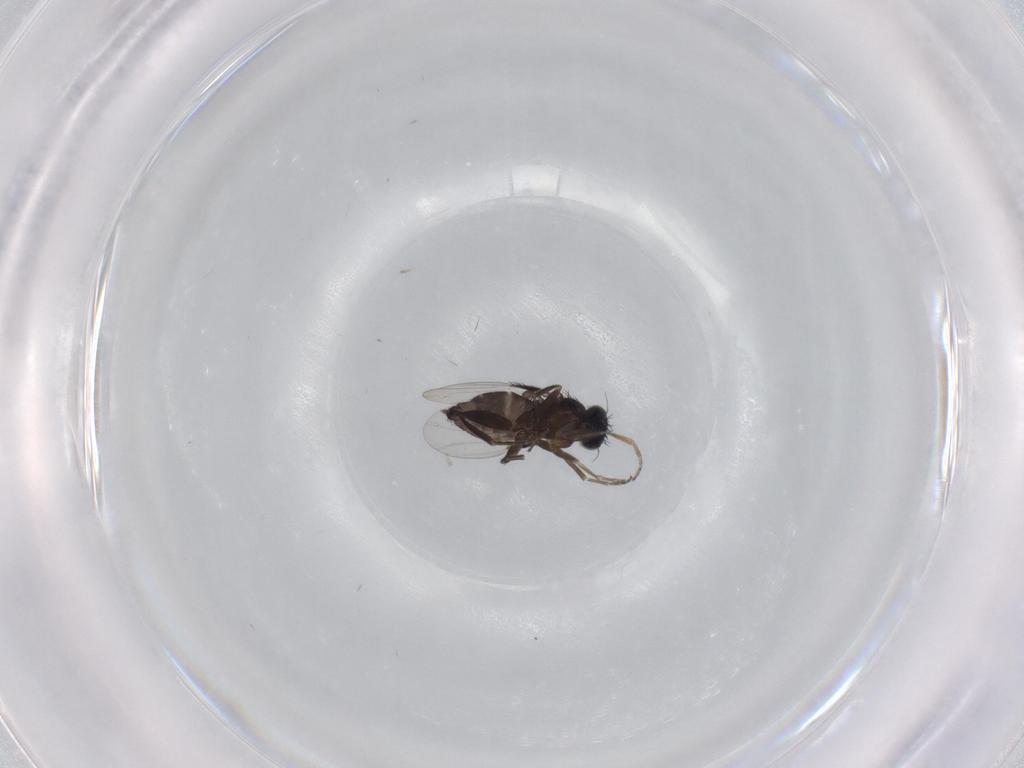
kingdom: Animalia
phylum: Arthropoda
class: Insecta
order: Diptera
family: Phoridae
